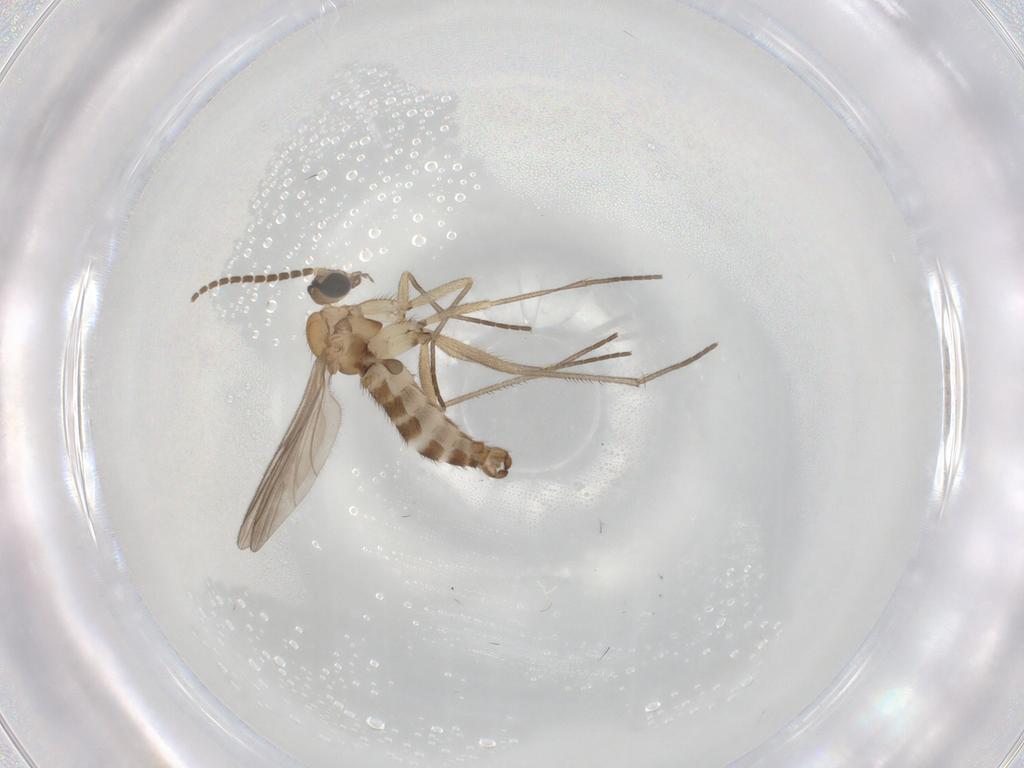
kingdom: Animalia
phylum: Arthropoda
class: Insecta
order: Diptera
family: Sciaridae
